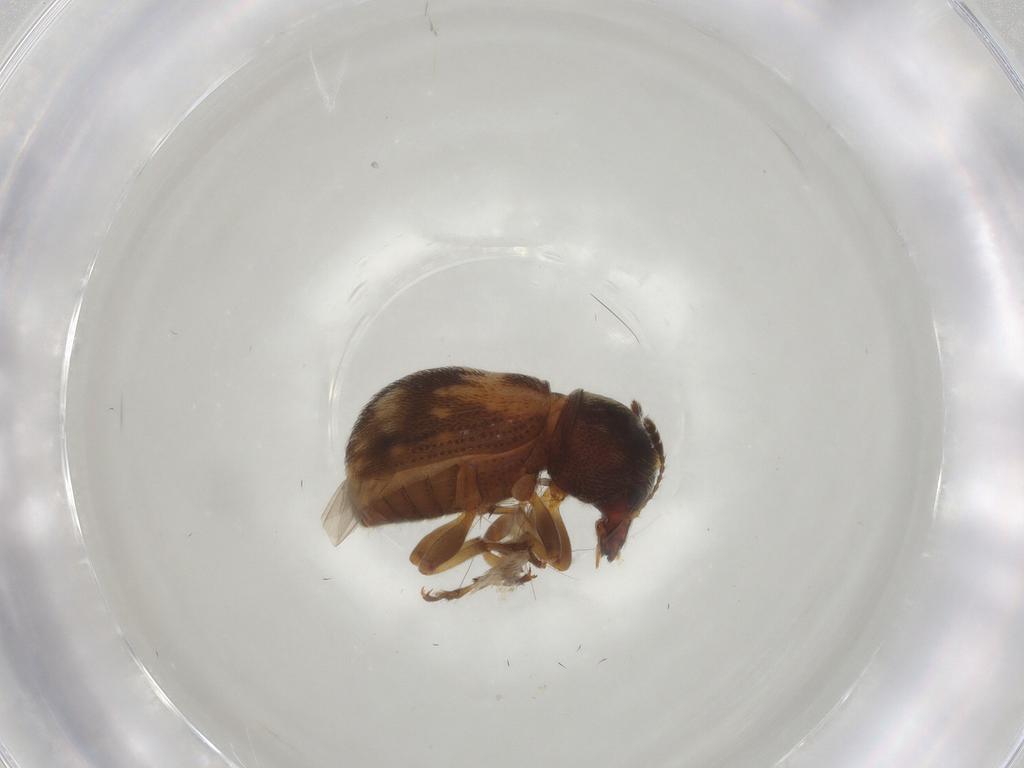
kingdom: Animalia
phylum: Arthropoda
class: Insecta
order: Coleoptera
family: Anthribidae
